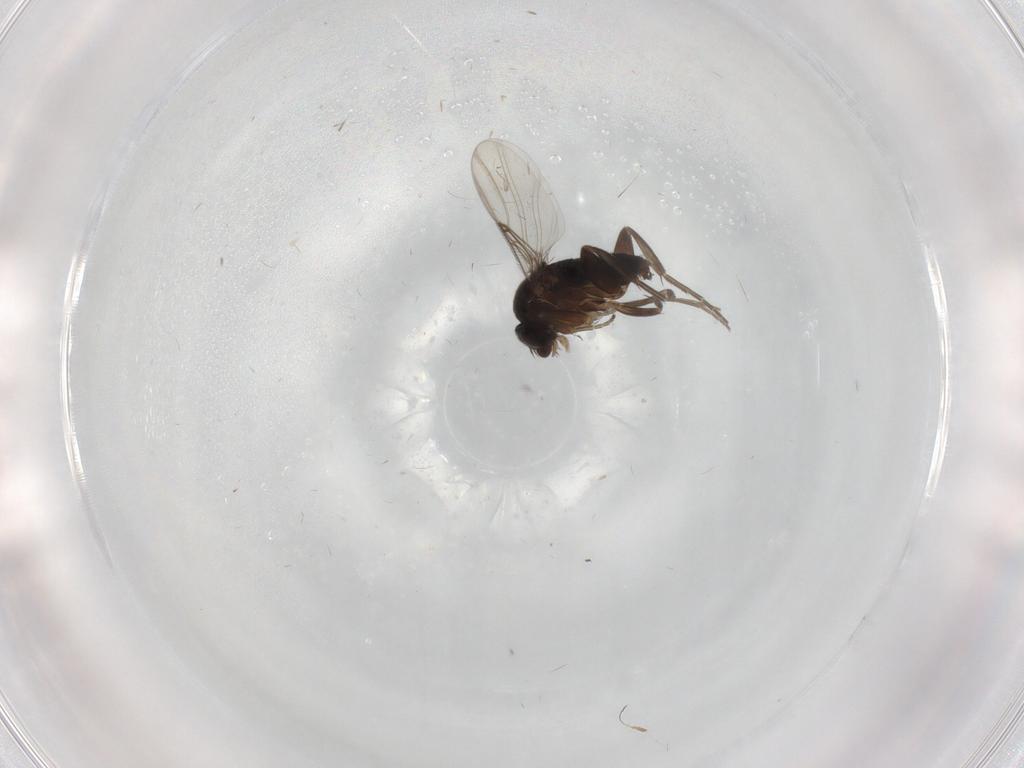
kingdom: Animalia
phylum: Arthropoda
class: Insecta
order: Diptera
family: Phoridae
